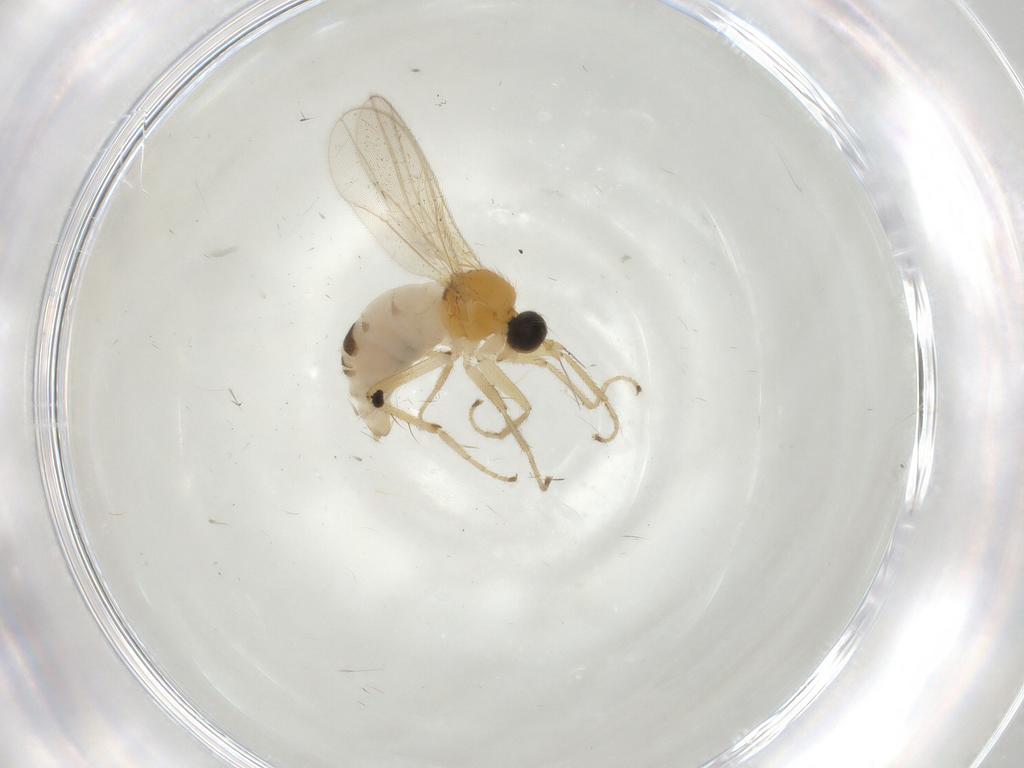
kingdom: Animalia
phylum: Arthropoda
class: Insecta
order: Diptera
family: Hybotidae
